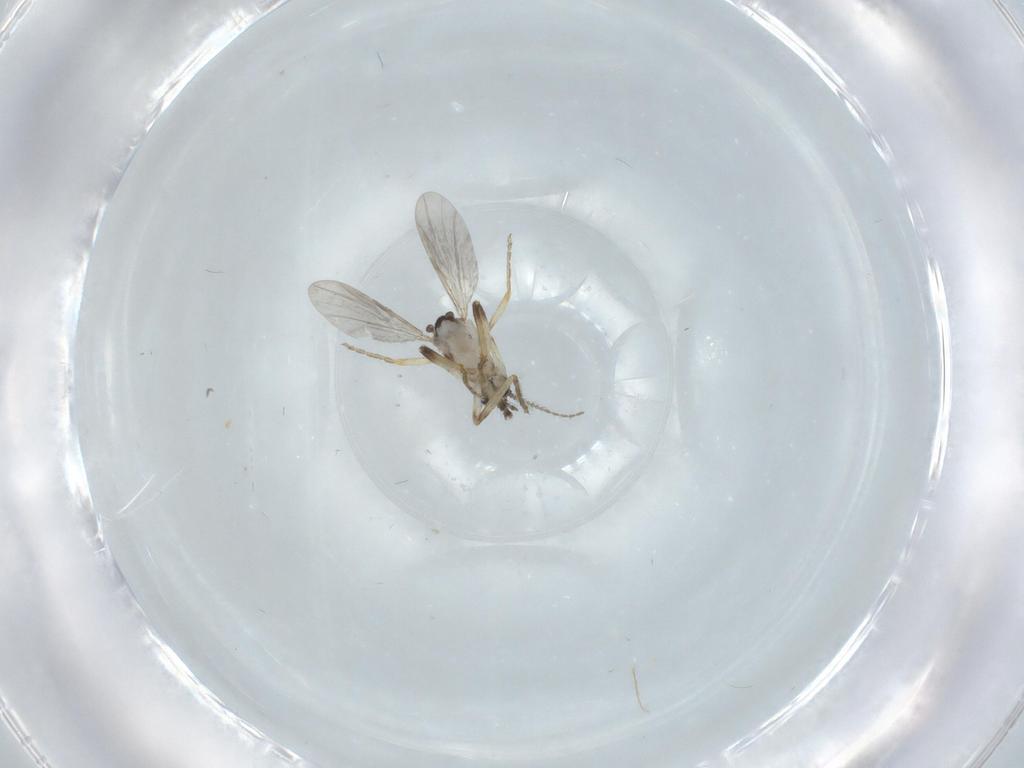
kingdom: Animalia
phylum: Arthropoda
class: Insecta
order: Diptera
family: Ceratopogonidae
